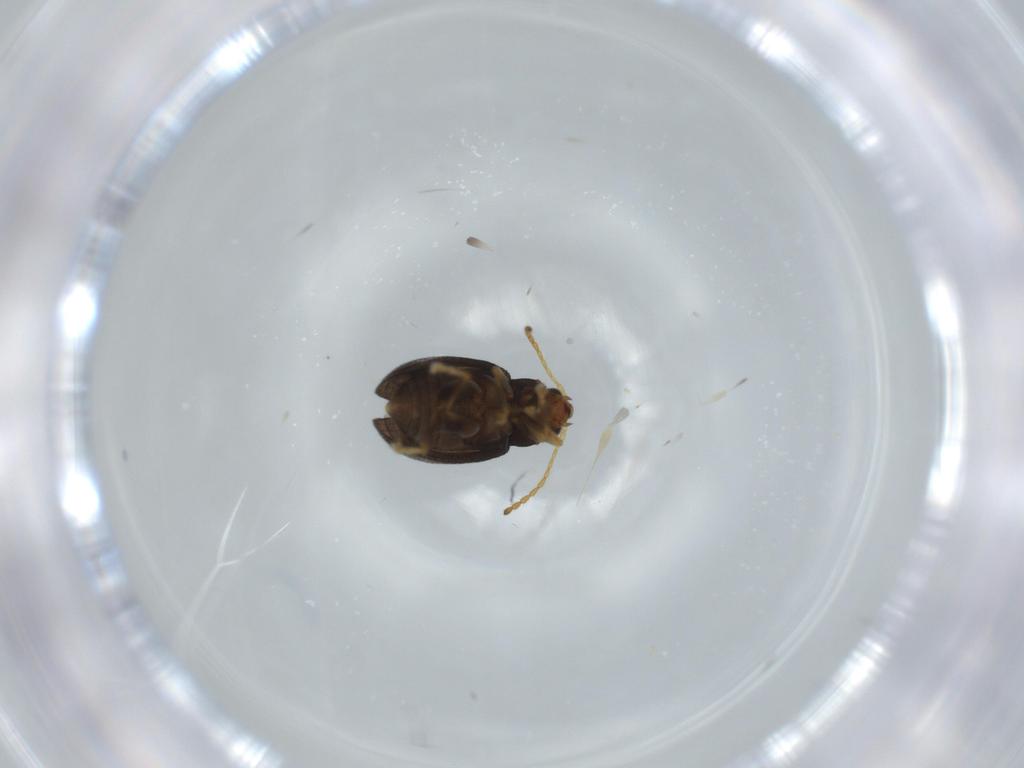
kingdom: Animalia
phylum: Arthropoda
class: Insecta
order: Coleoptera
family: Chrysomelidae
